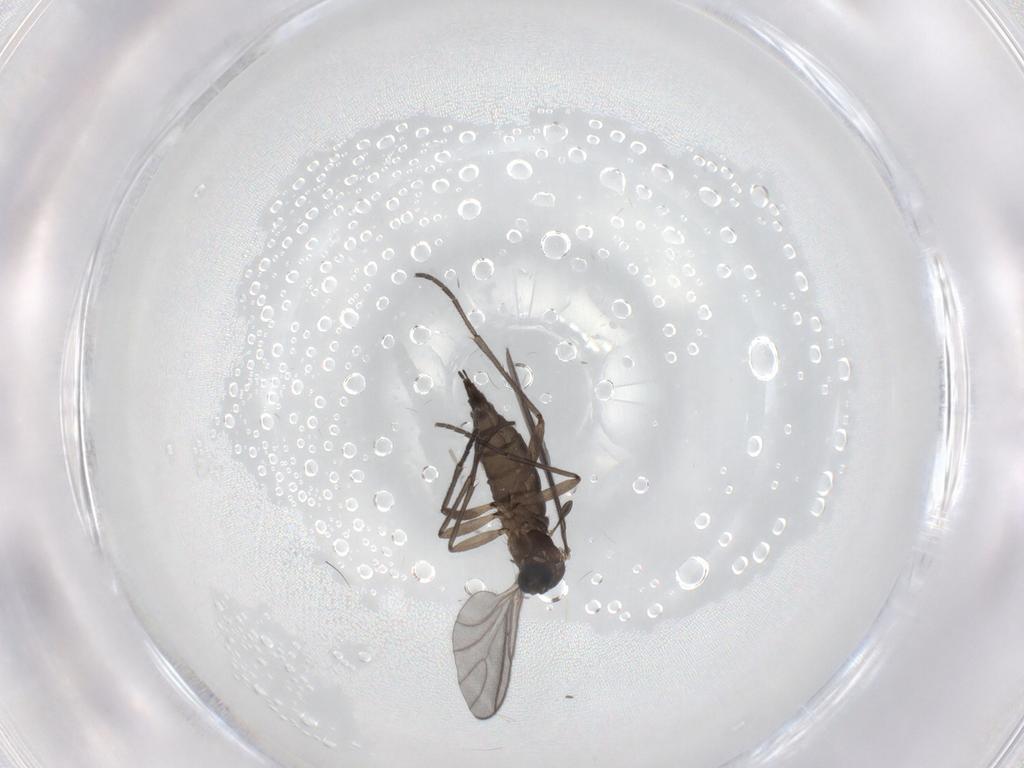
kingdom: Animalia
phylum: Arthropoda
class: Insecta
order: Diptera
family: Sciaridae
